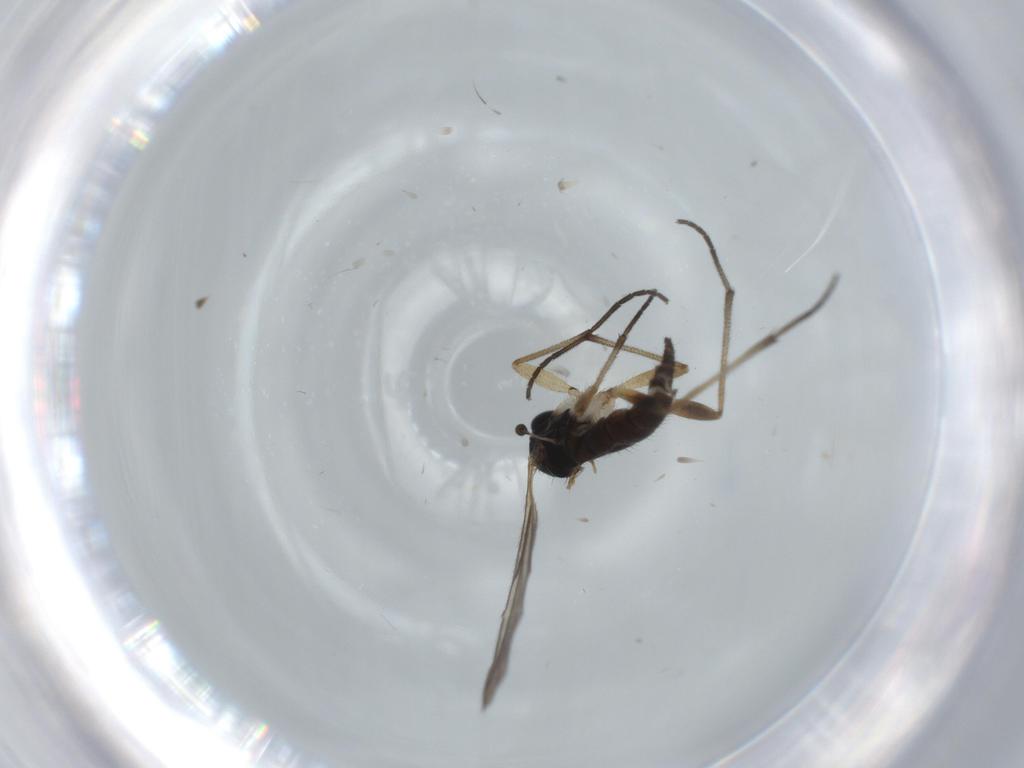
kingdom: Animalia
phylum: Arthropoda
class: Insecta
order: Diptera
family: Sciaridae
